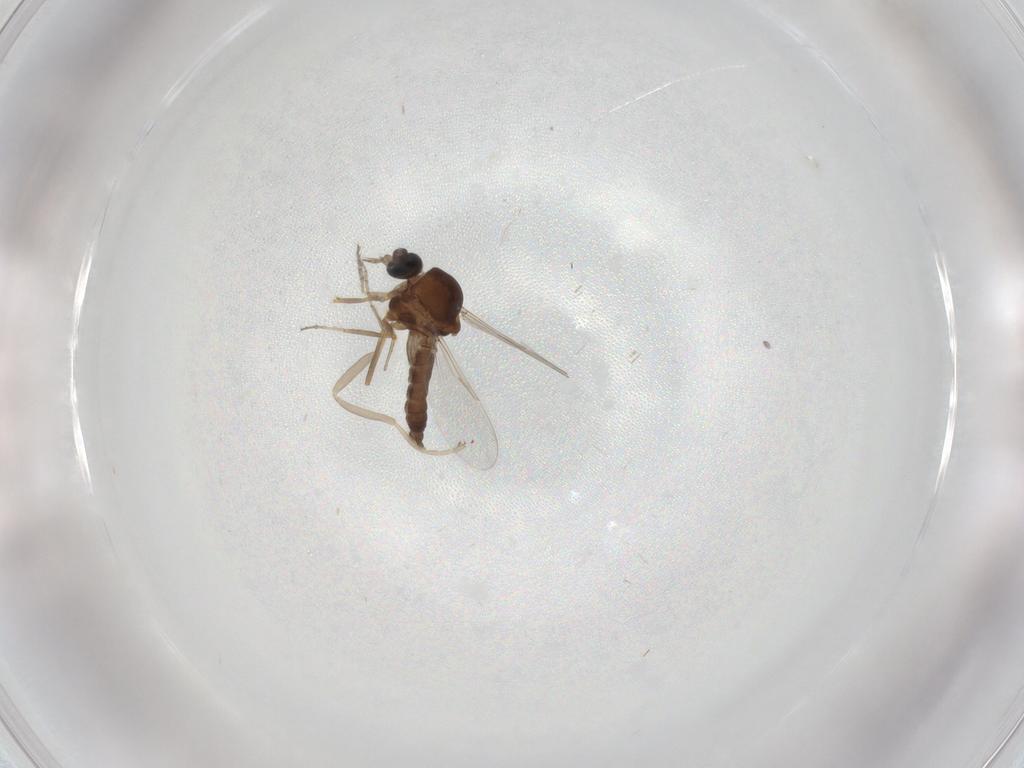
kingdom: Animalia
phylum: Arthropoda
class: Insecta
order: Diptera
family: Ceratopogonidae
